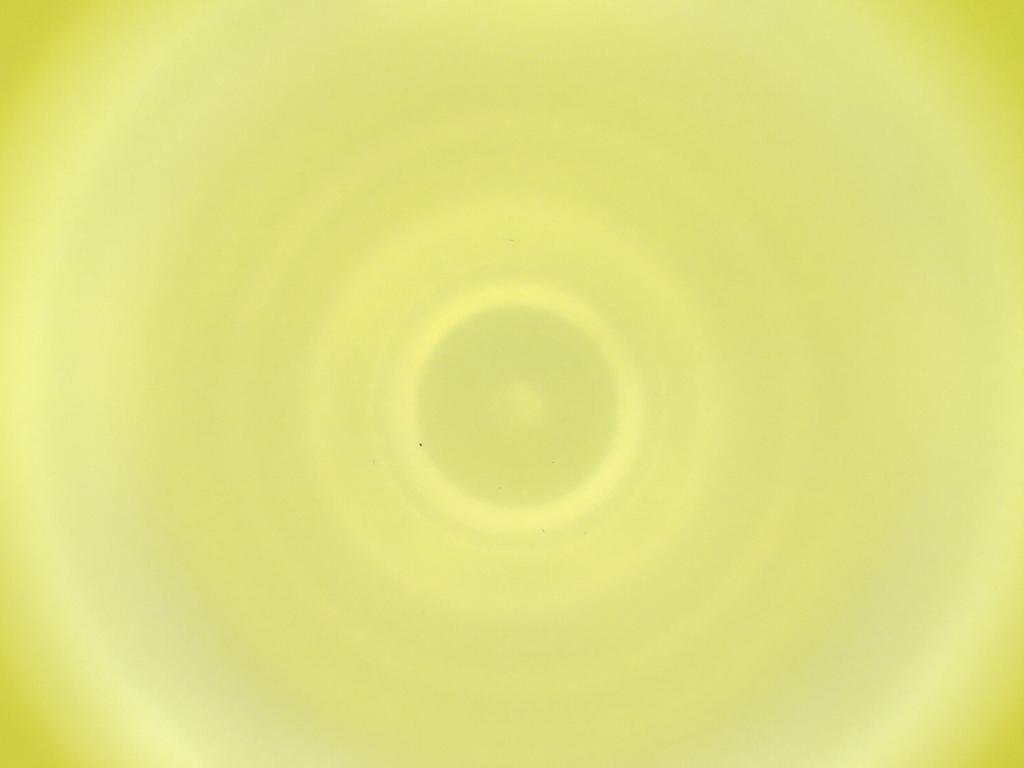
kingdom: Animalia
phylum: Arthropoda
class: Insecta
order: Diptera
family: Cecidomyiidae
